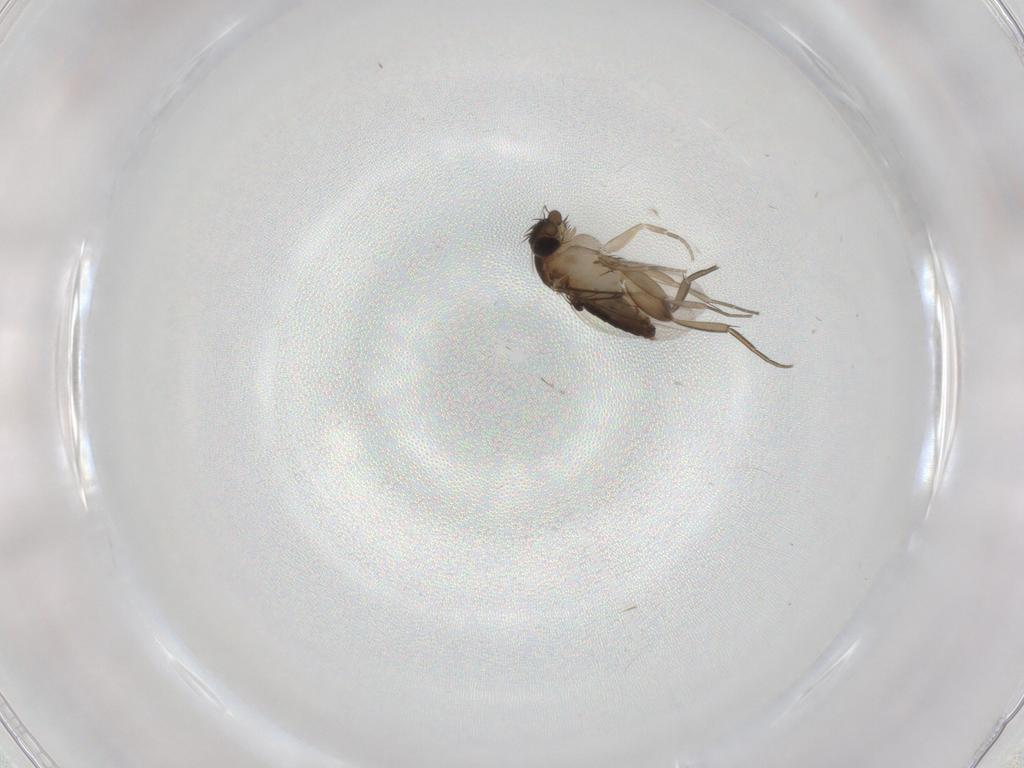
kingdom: Animalia
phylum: Arthropoda
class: Insecta
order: Diptera
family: Phoridae
